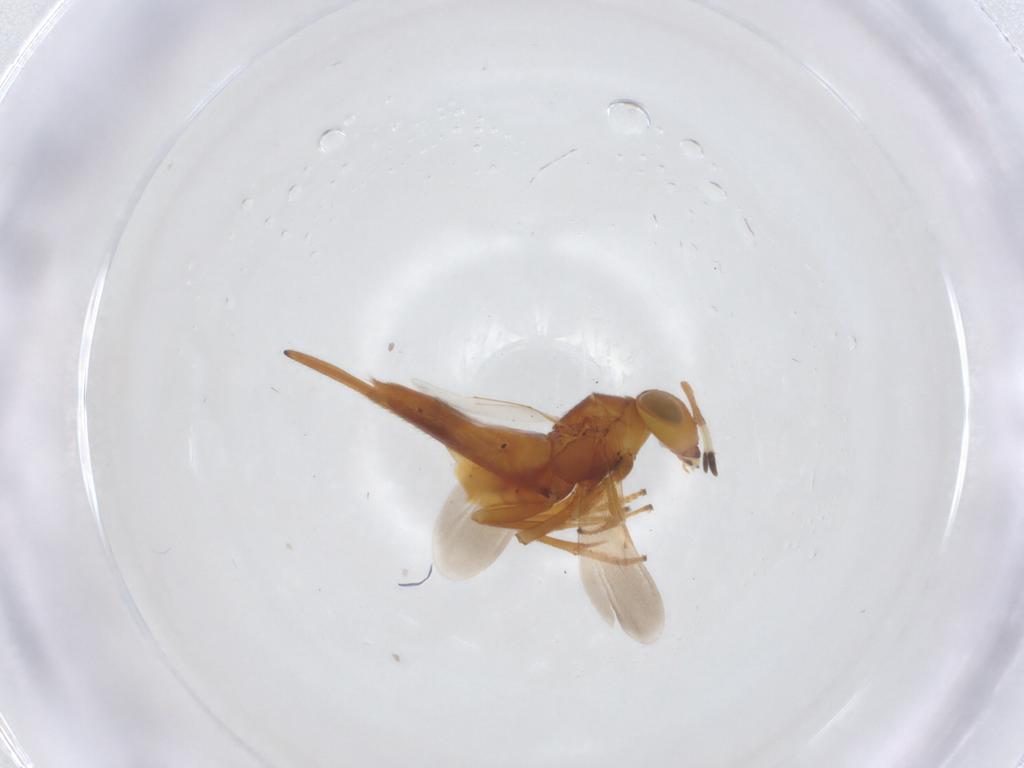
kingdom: Animalia
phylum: Arthropoda
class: Insecta
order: Hymenoptera
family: Encyrtidae
